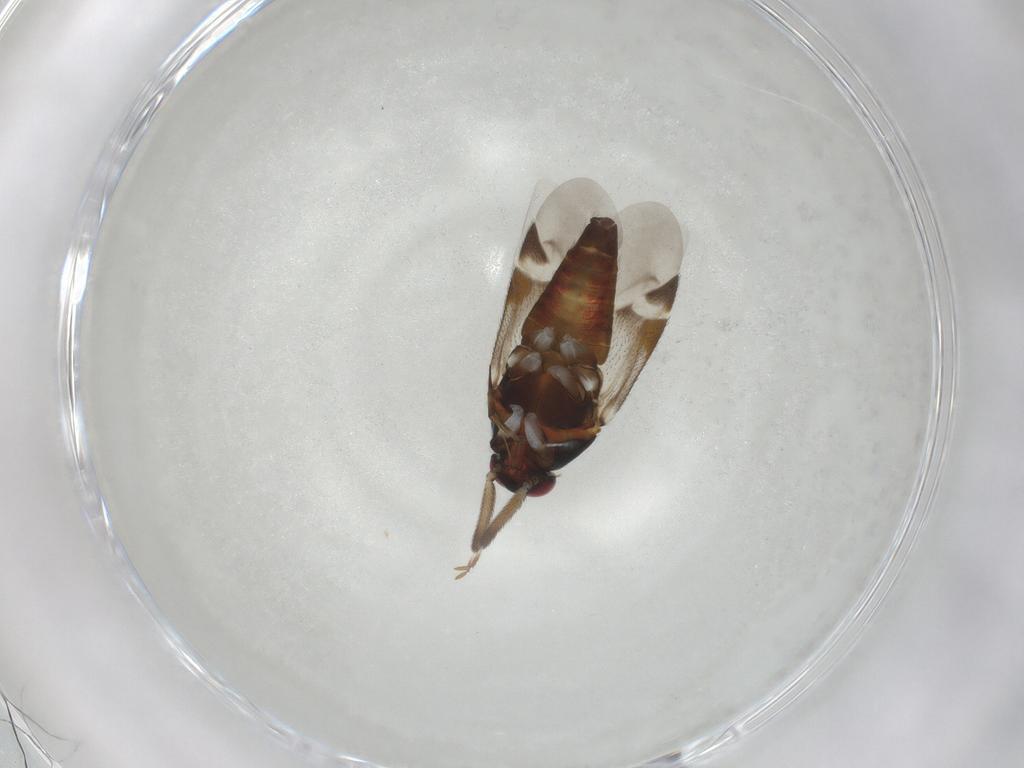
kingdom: Animalia
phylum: Arthropoda
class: Insecta
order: Hemiptera
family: Miridae
